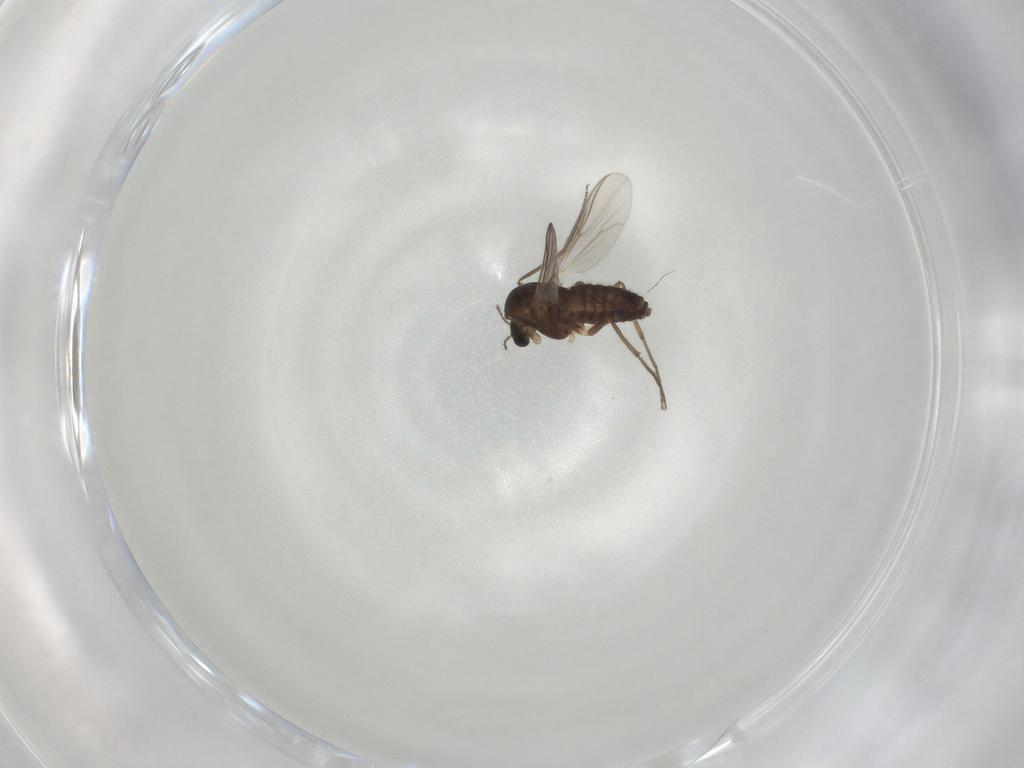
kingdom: Animalia
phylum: Arthropoda
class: Insecta
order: Diptera
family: Chironomidae
